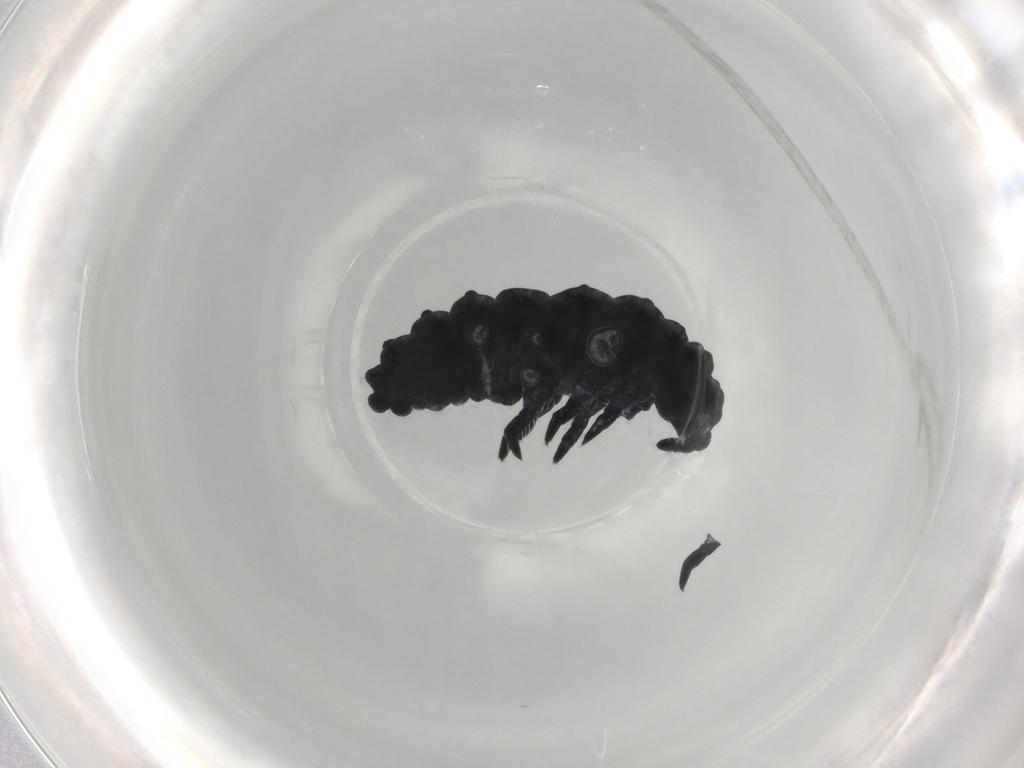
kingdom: Animalia
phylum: Arthropoda
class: Collembola
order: Poduromorpha
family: Neanuridae
